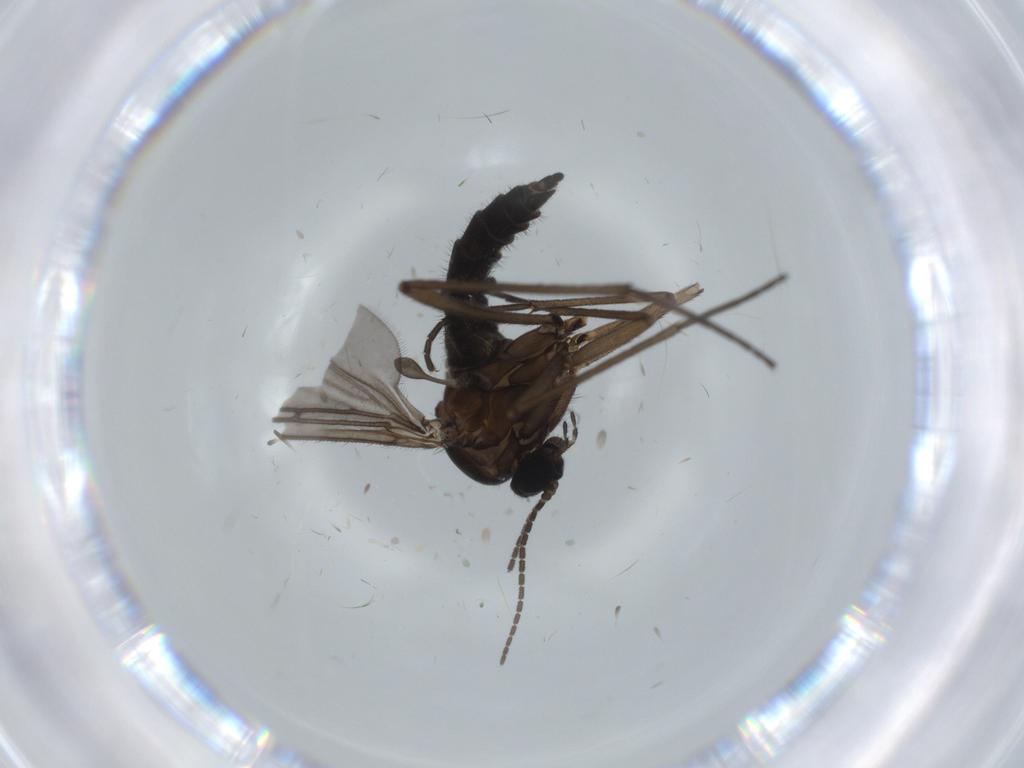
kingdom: Animalia
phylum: Arthropoda
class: Insecta
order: Diptera
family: Sciaridae
